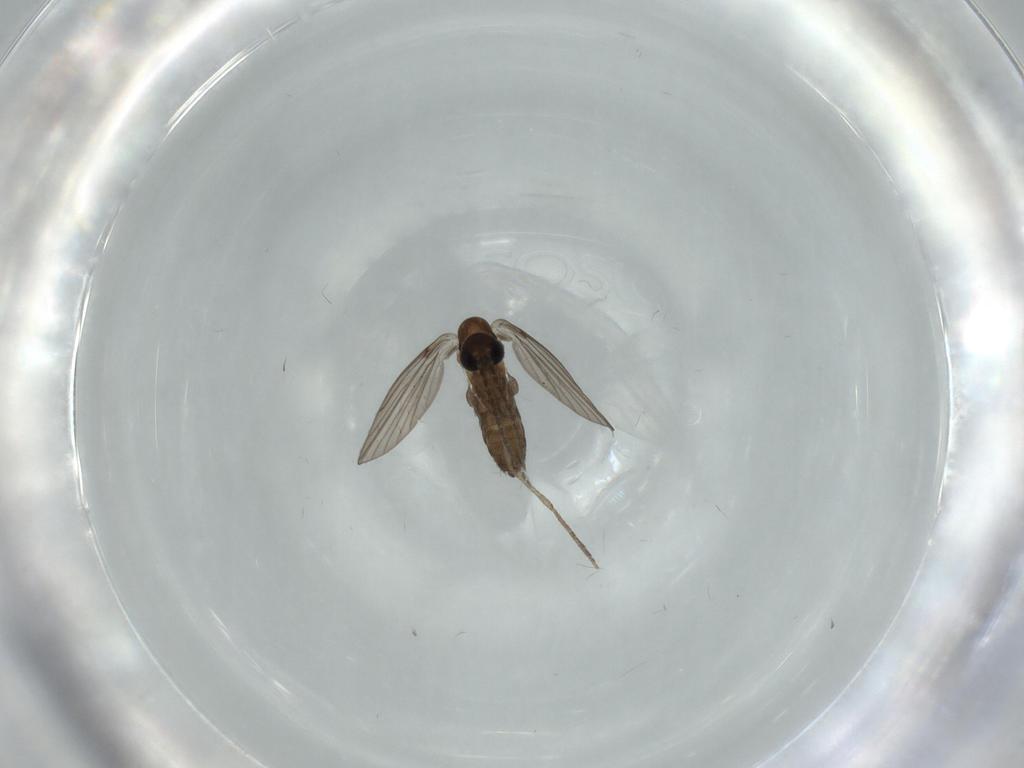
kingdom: Animalia
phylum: Arthropoda
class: Insecta
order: Diptera
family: Psychodidae
